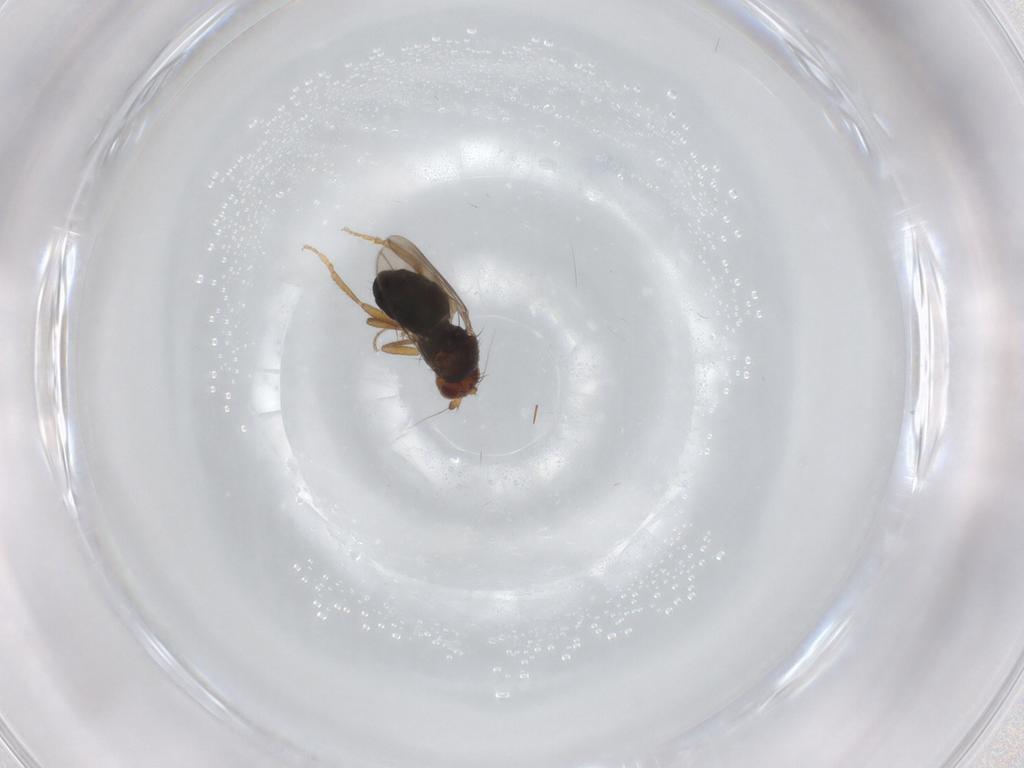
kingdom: Animalia
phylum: Arthropoda
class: Insecta
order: Diptera
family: Sphaeroceridae
